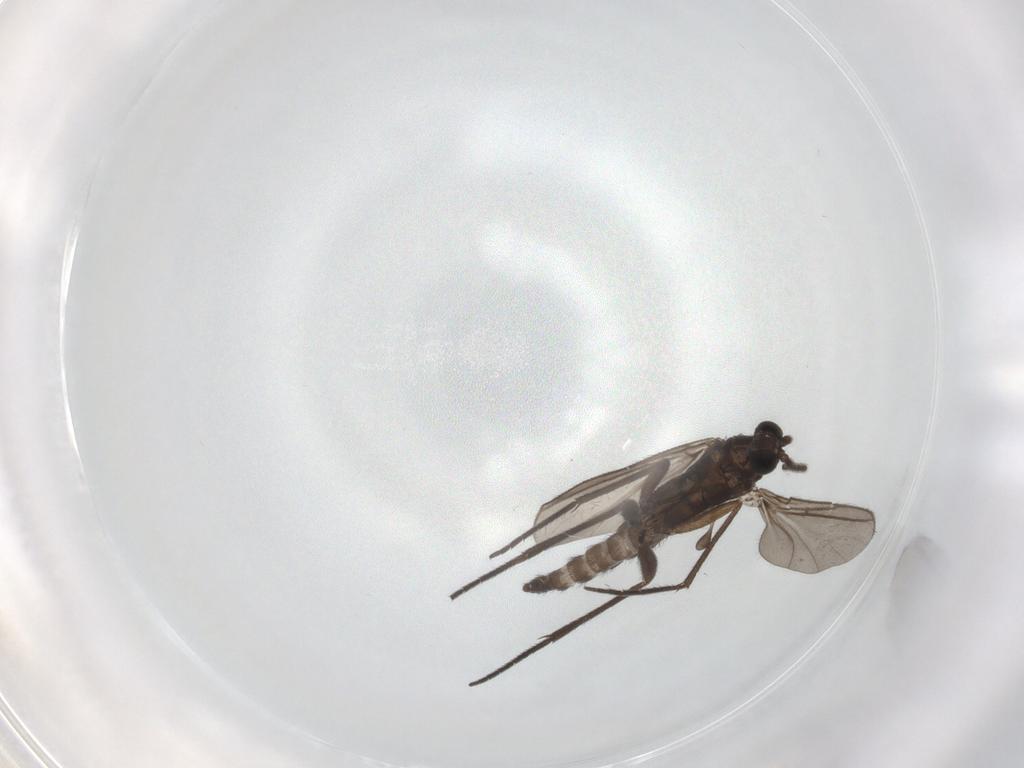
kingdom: Animalia
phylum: Arthropoda
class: Insecta
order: Diptera
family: Sciaridae
